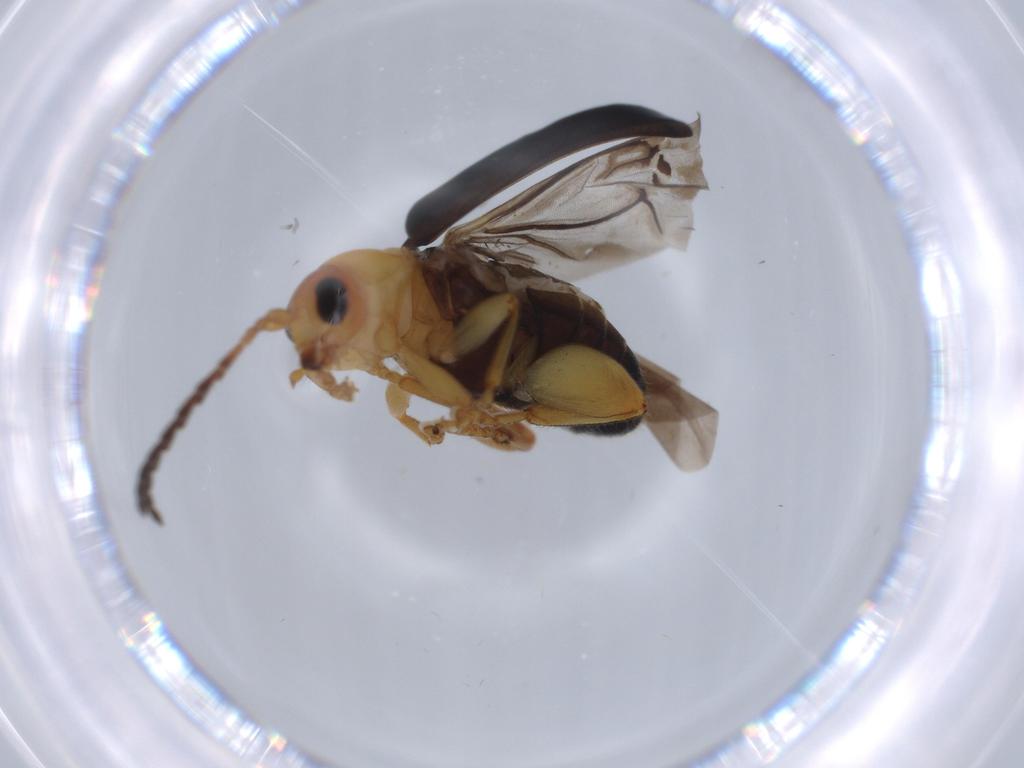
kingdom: Animalia
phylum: Arthropoda
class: Insecta
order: Coleoptera
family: Chrysomelidae
